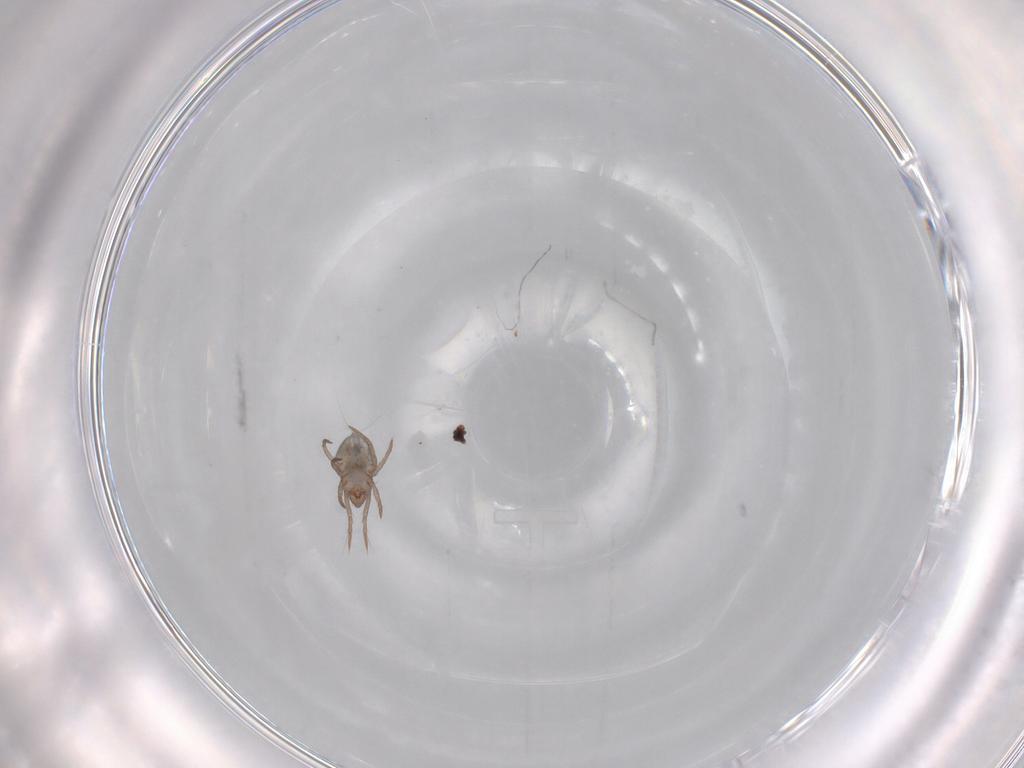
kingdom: Animalia
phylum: Arthropoda
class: Arachnida
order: Sarcoptiformes
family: Ceratoppiidae
